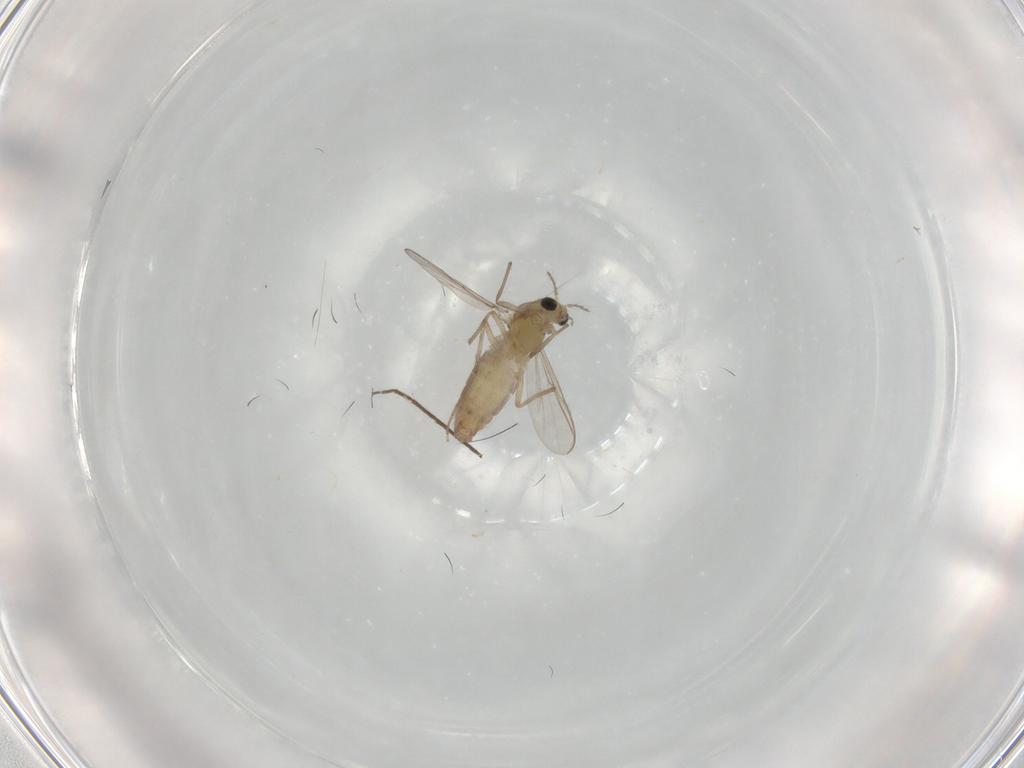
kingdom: Animalia
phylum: Arthropoda
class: Insecta
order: Diptera
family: Chironomidae
